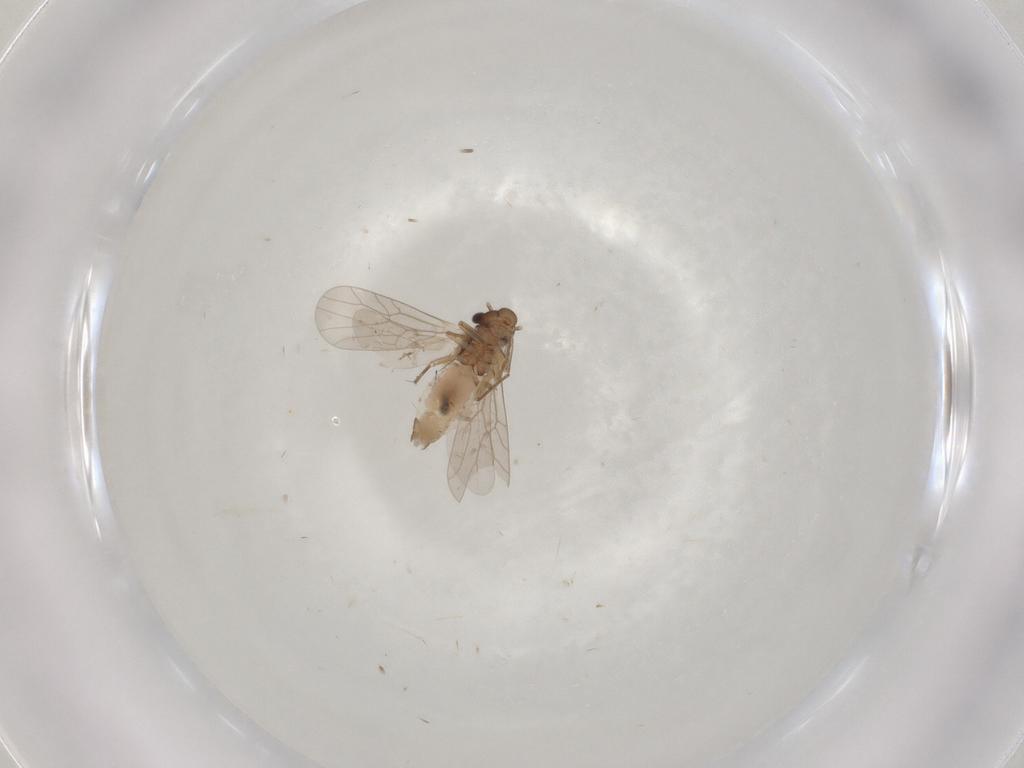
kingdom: Animalia
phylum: Arthropoda
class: Insecta
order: Psocodea
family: Lepidopsocidae
